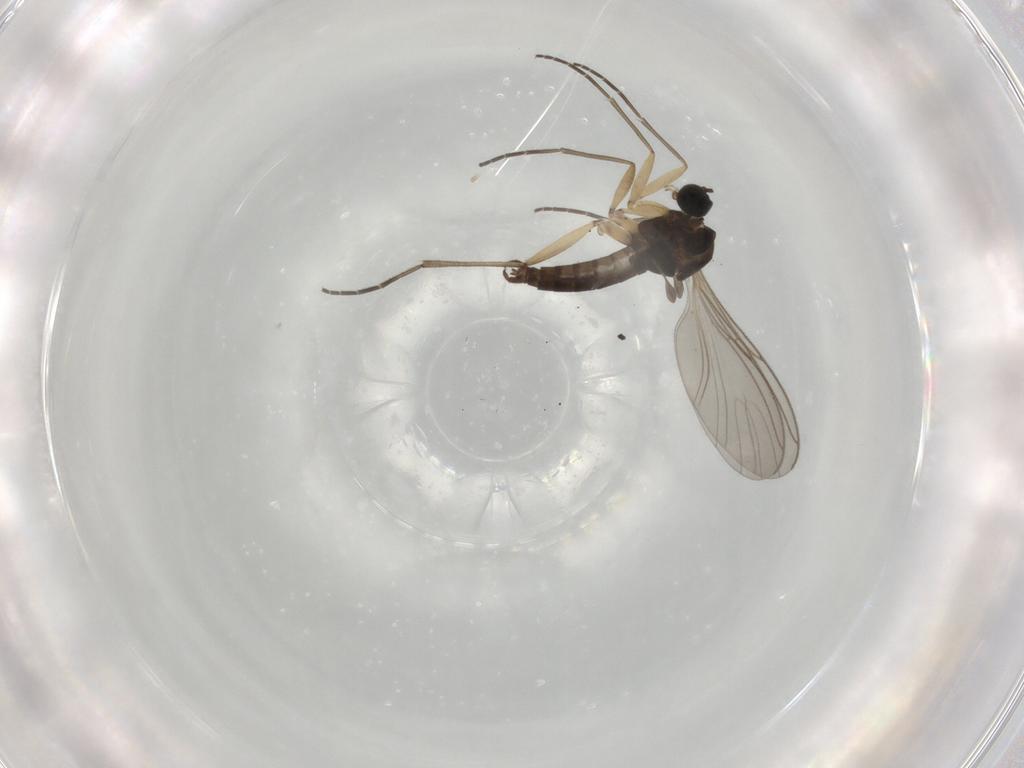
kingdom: Animalia
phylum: Arthropoda
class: Insecta
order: Diptera
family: Sciaridae
